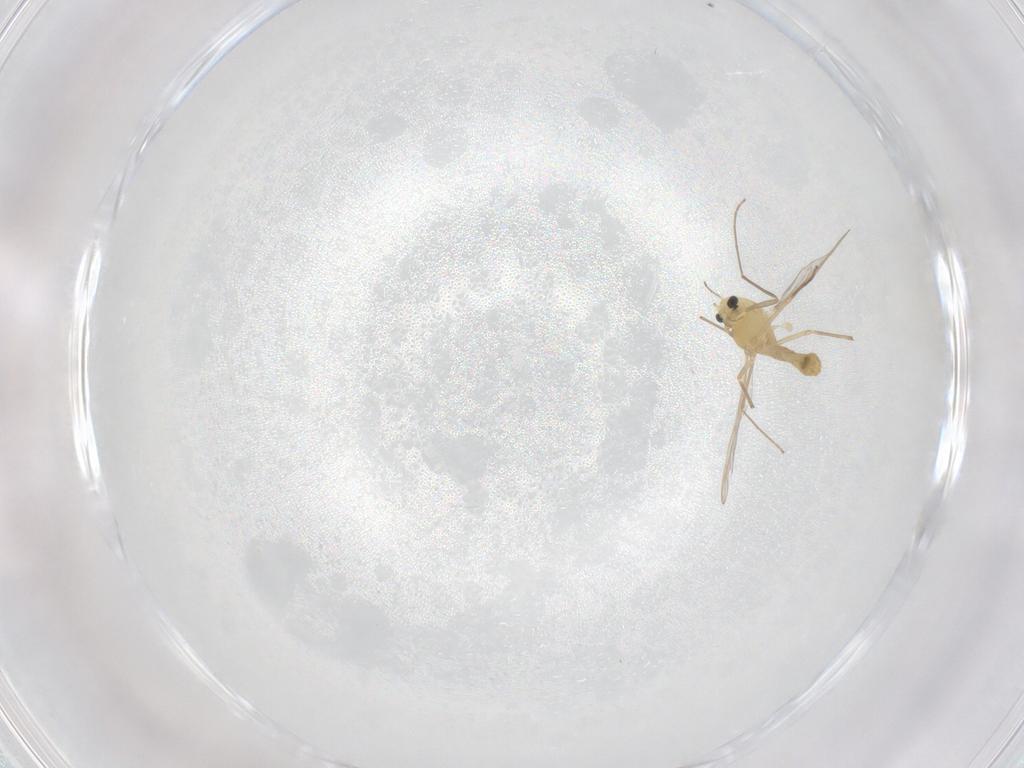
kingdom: Animalia
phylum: Arthropoda
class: Insecta
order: Diptera
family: Chironomidae
